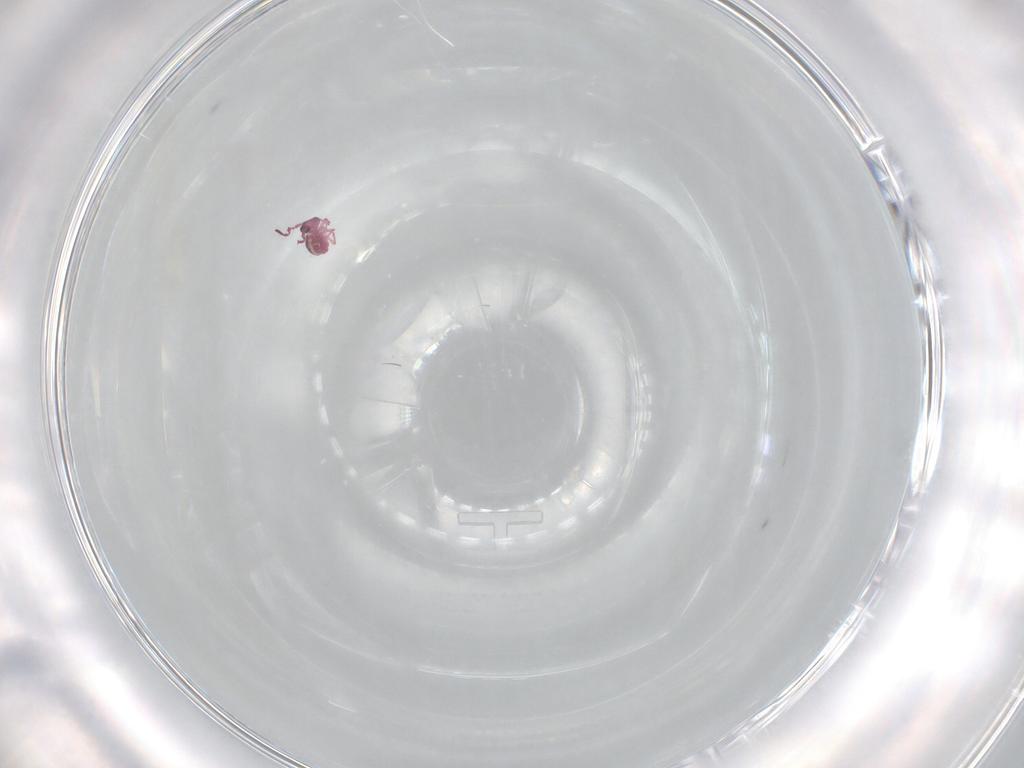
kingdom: Animalia
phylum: Arthropoda
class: Collembola
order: Symphypleona
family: Sminthurididae
